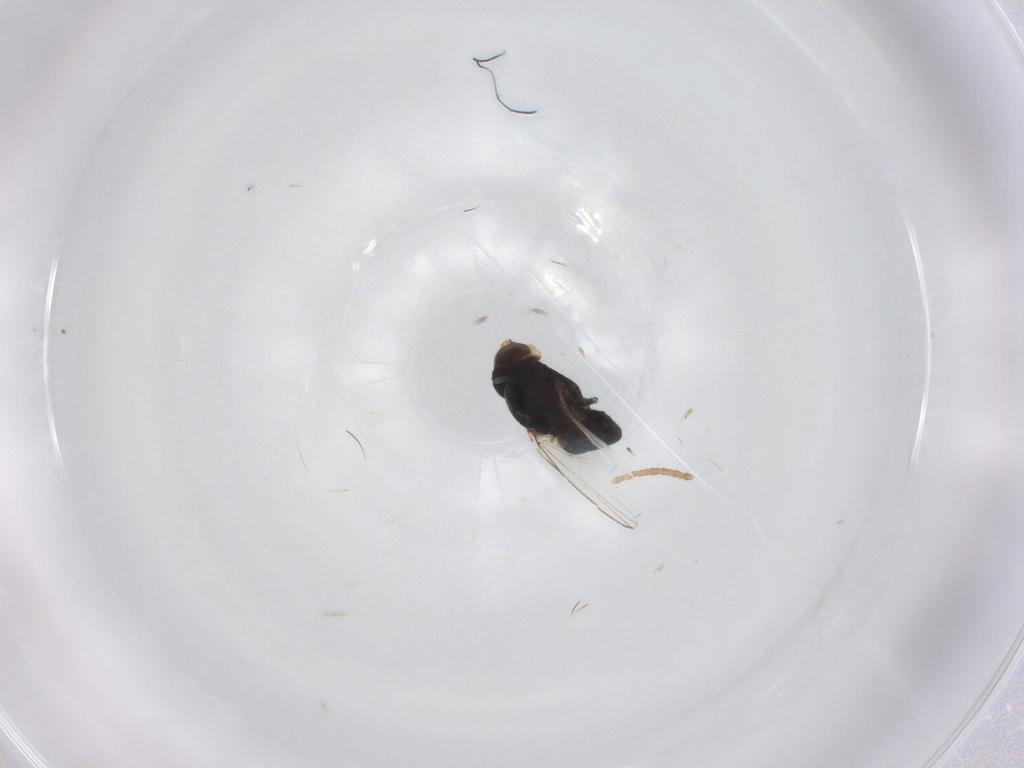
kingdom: Animalia
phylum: Arthropoda
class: Insecta
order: Diptera
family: Milichiidae
